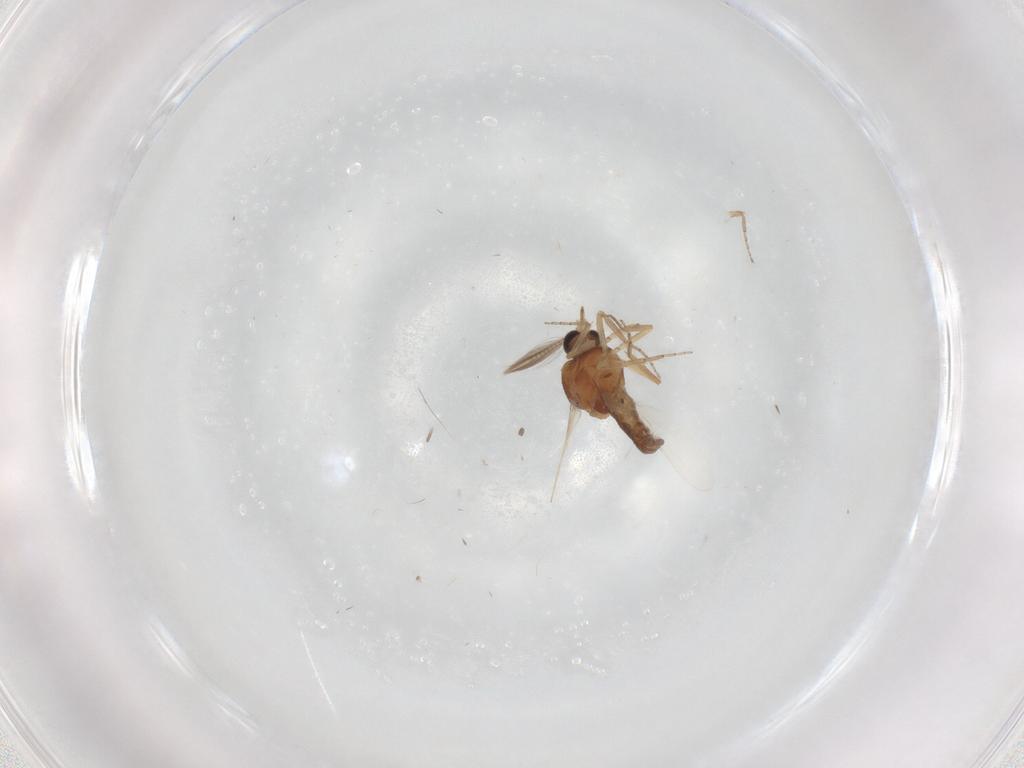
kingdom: Animalia
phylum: Arthropoda
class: Insecta
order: Diptera
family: Ceratopogonidae
